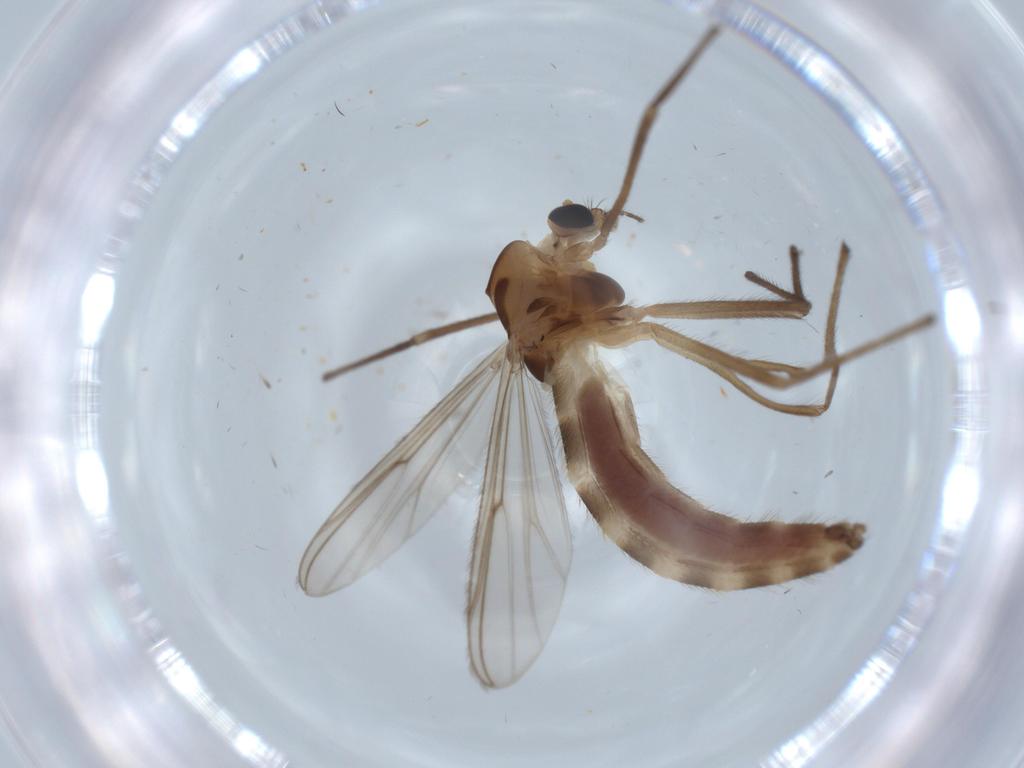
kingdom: Animalia
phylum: Arthropoda
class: Insecta
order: Diptera
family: Chironomidae
